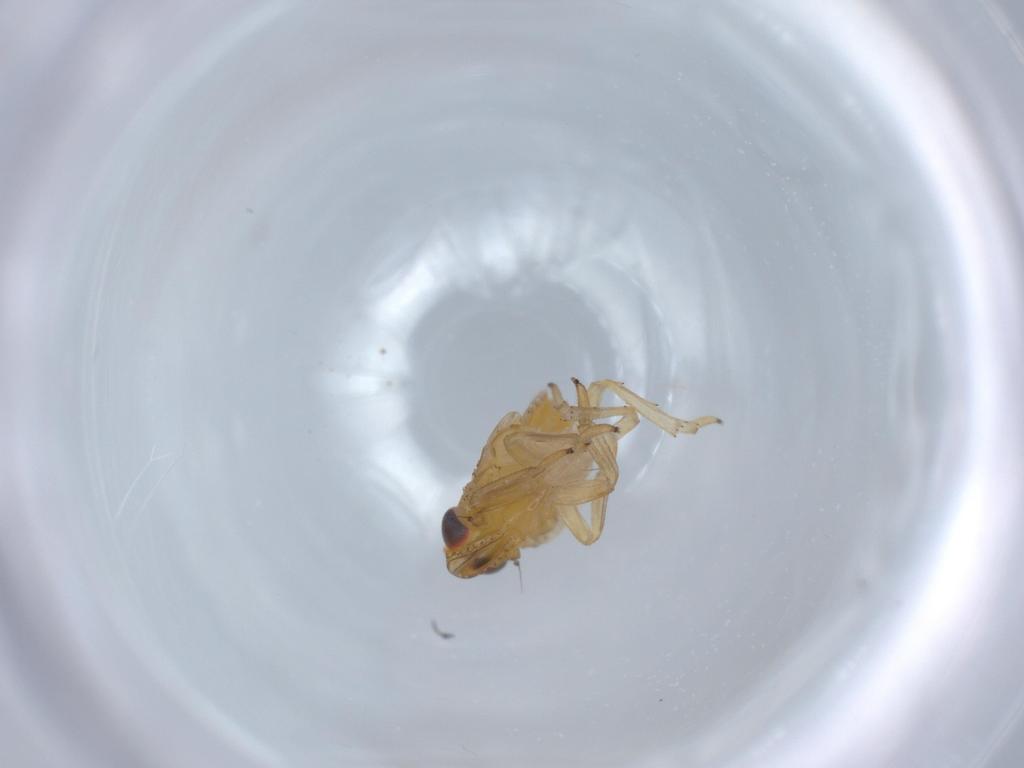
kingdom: Animalia
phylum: Arthropoda
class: Insecta
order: Hemiptera
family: Issidae
